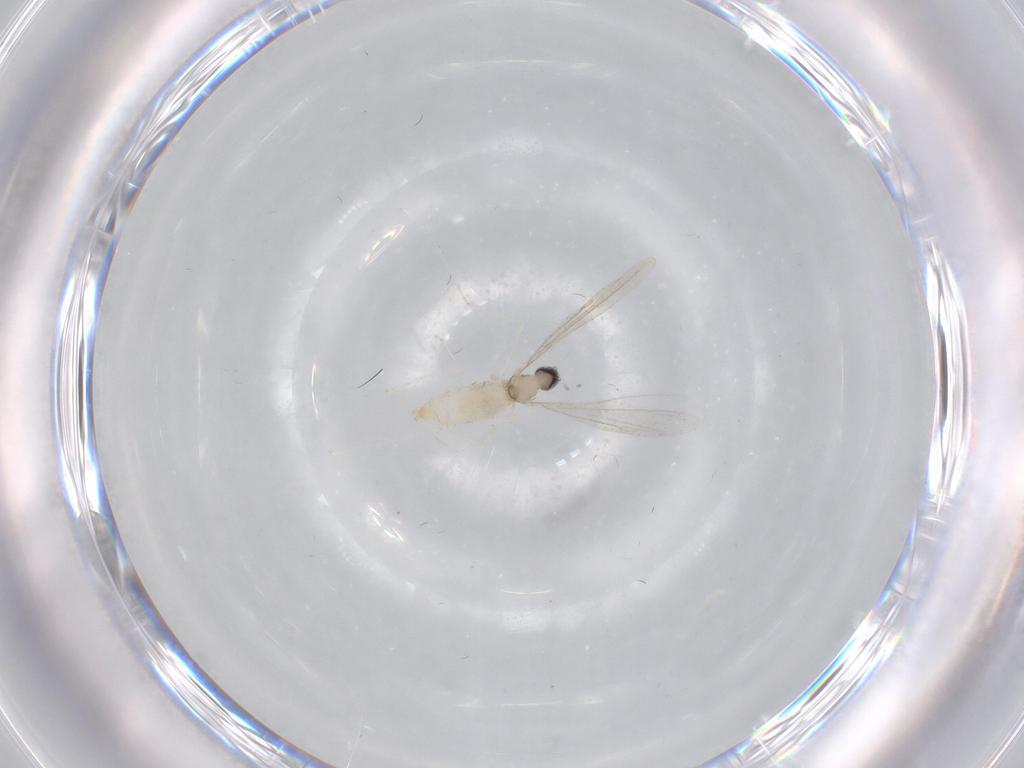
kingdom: Animalia
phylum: Arthropoda
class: Insecta
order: Diptera
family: Cecidomyiidae
